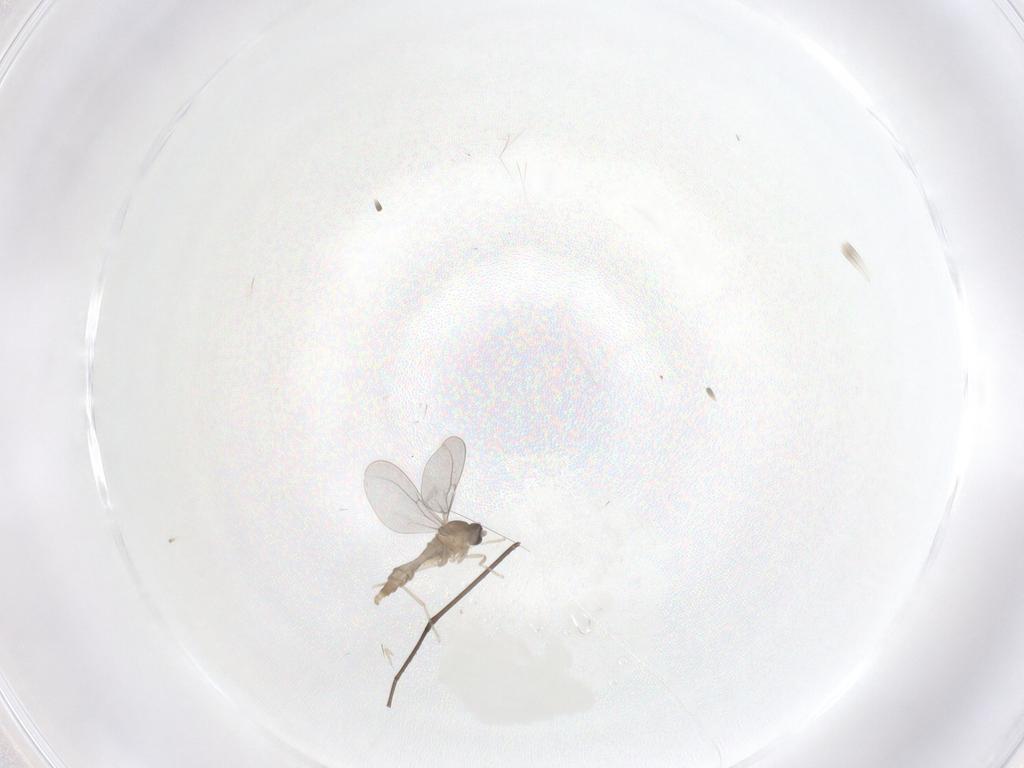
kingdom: Animalia
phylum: Arthropoda
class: Insecta
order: Diptera
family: Cecidomyiidae
